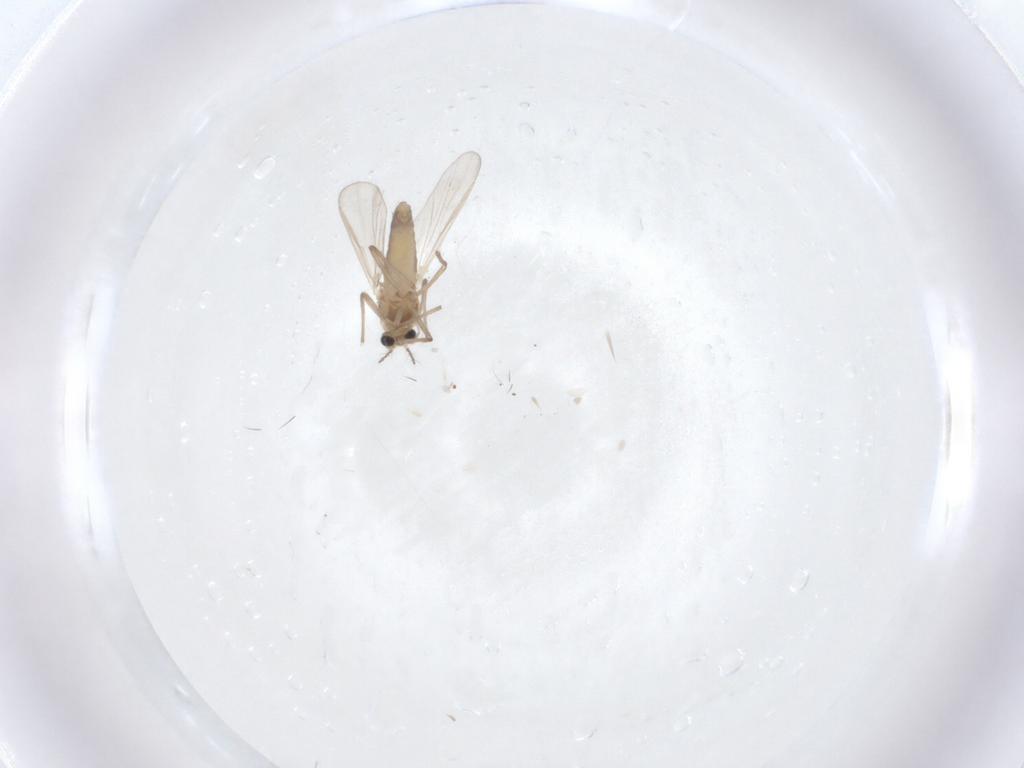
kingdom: Animalia
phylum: Arthropoda
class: Insecta
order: Diptera
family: Chironomidae
